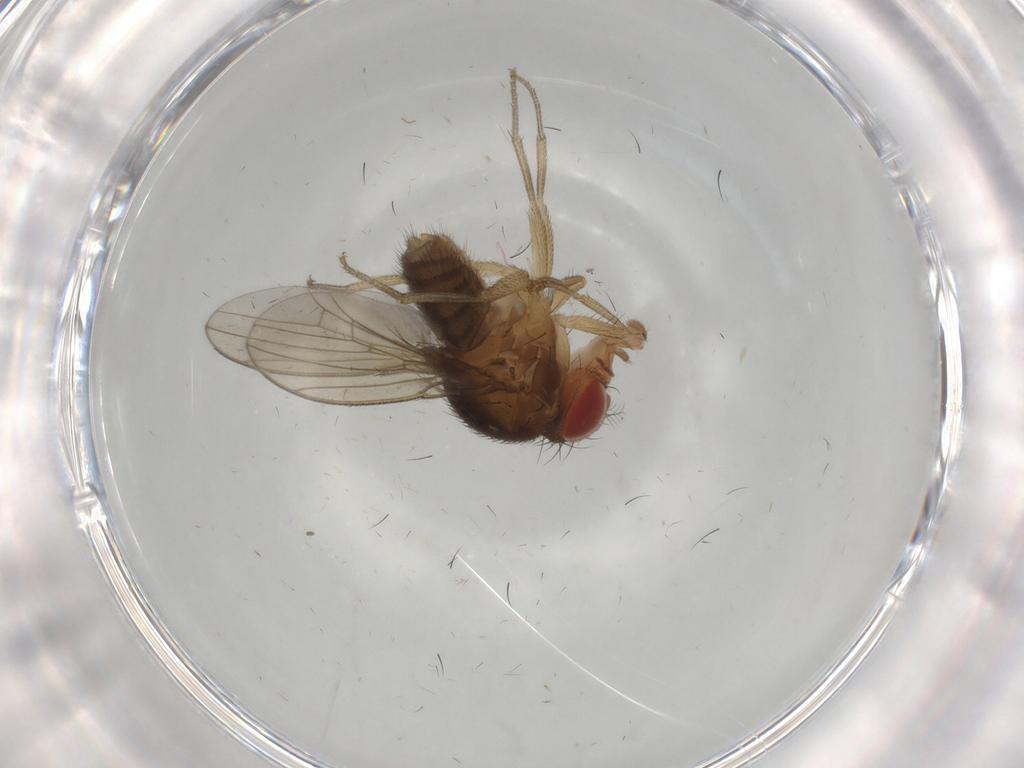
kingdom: Animalia
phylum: Arthropoda
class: Insecta
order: Diptera
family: Drosophilidae
